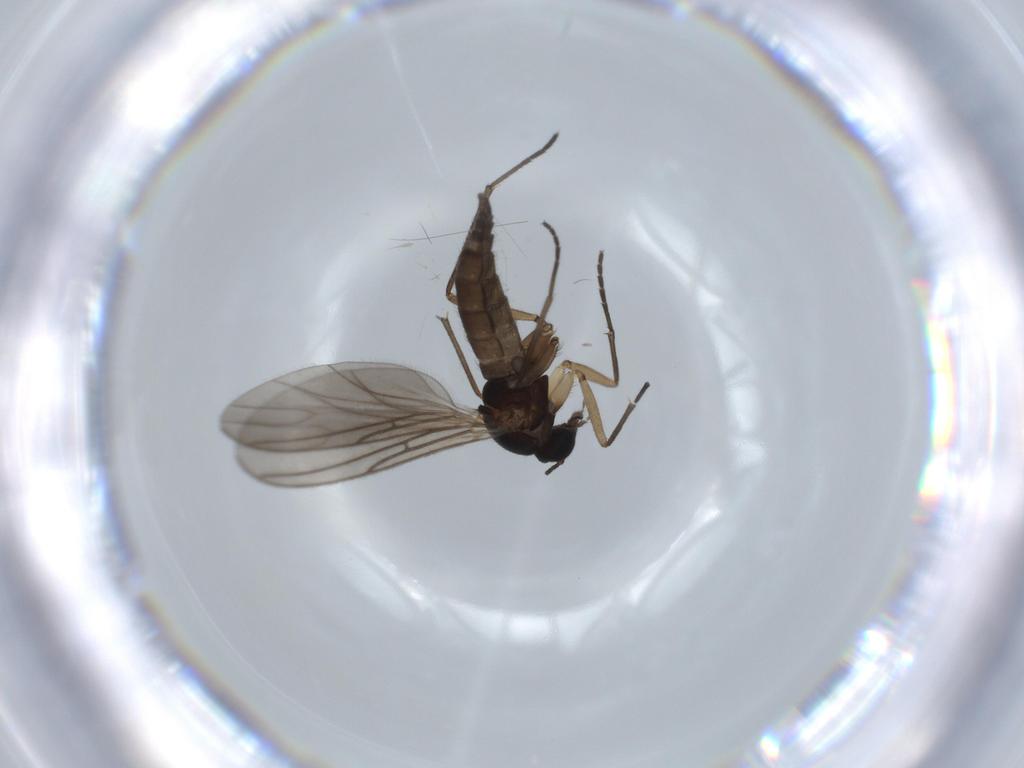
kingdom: Animalia
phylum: Arthropoda
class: Insecta
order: Diptera
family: Sciaridae
